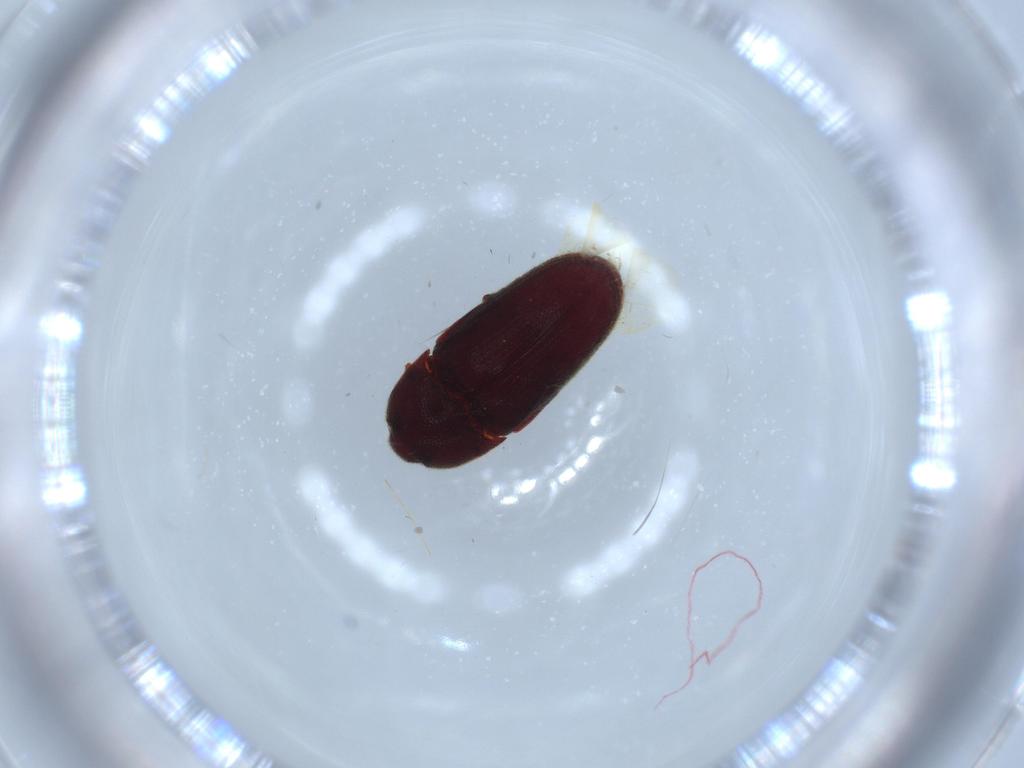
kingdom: Animalia
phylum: Arthropoda
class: Insecta
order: Coleoptera
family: Throscidae
